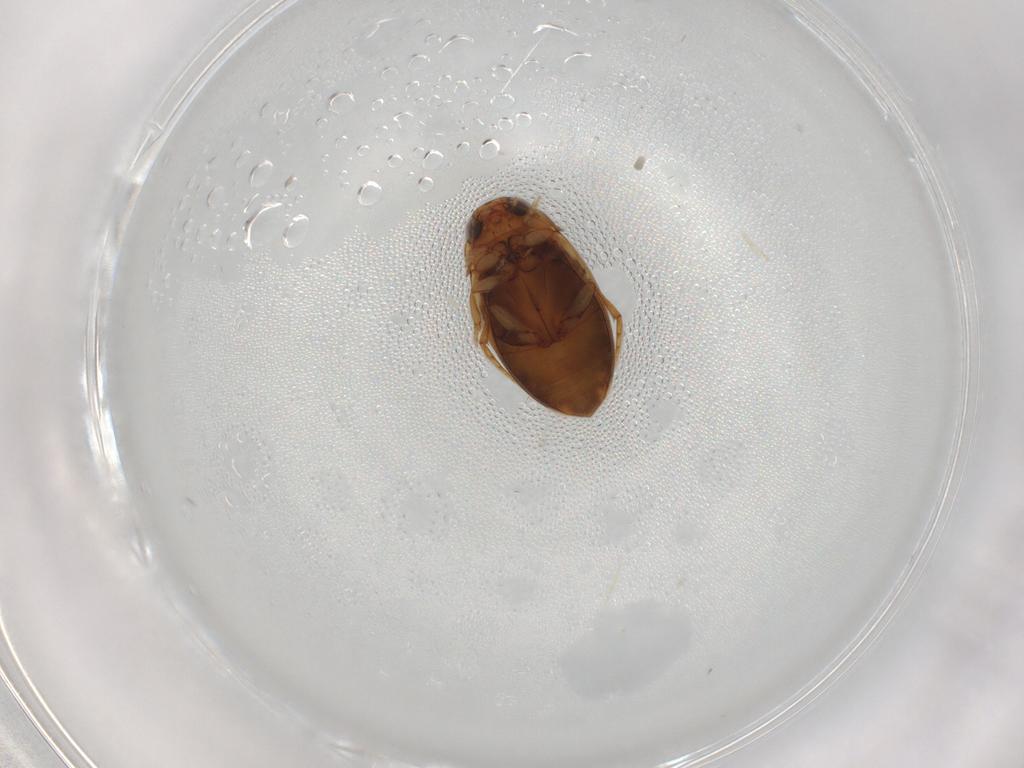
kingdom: Animalia
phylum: Arthropoda
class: Insecta
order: Coleoptera
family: Dytiscidae
